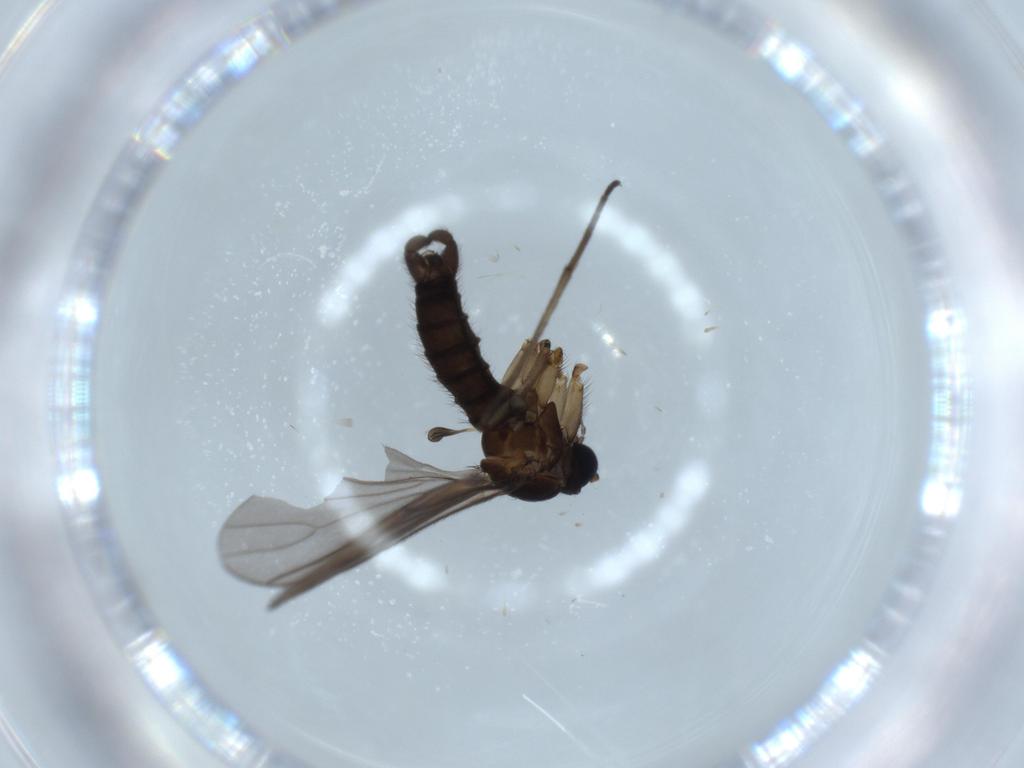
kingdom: Animalia
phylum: Arthropoda
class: Insecta
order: Diptera
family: Sciaridae
